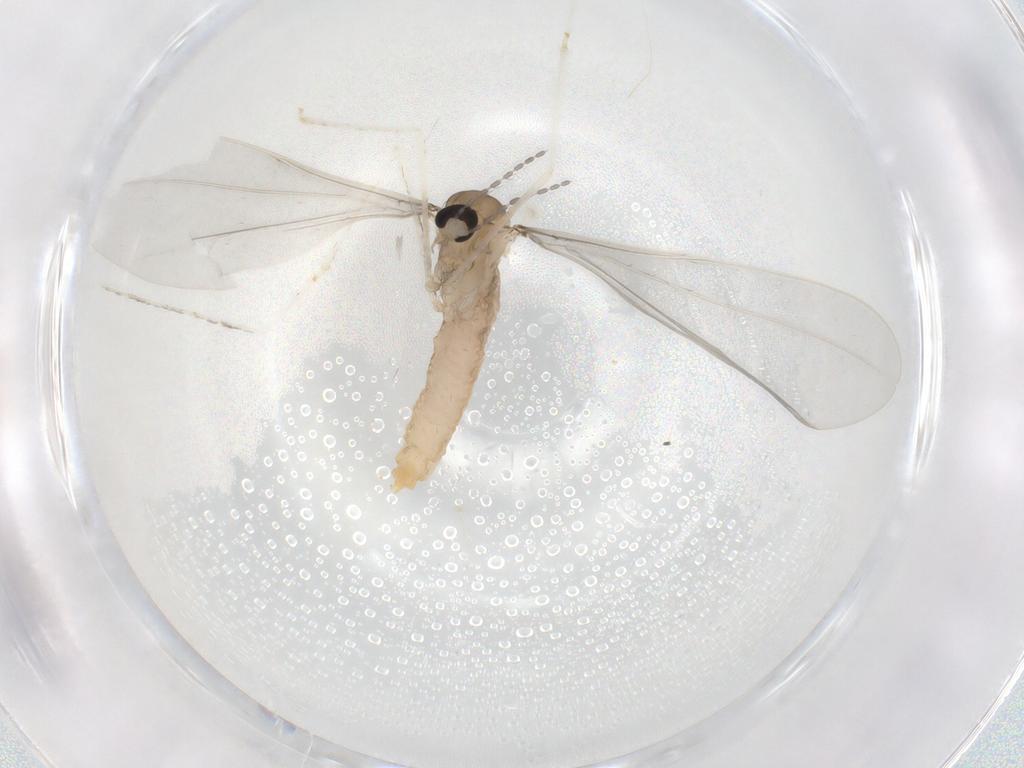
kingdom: Animalia
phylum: Arthropoda
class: Insecta
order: Diptera
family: Cecidomyiidae
